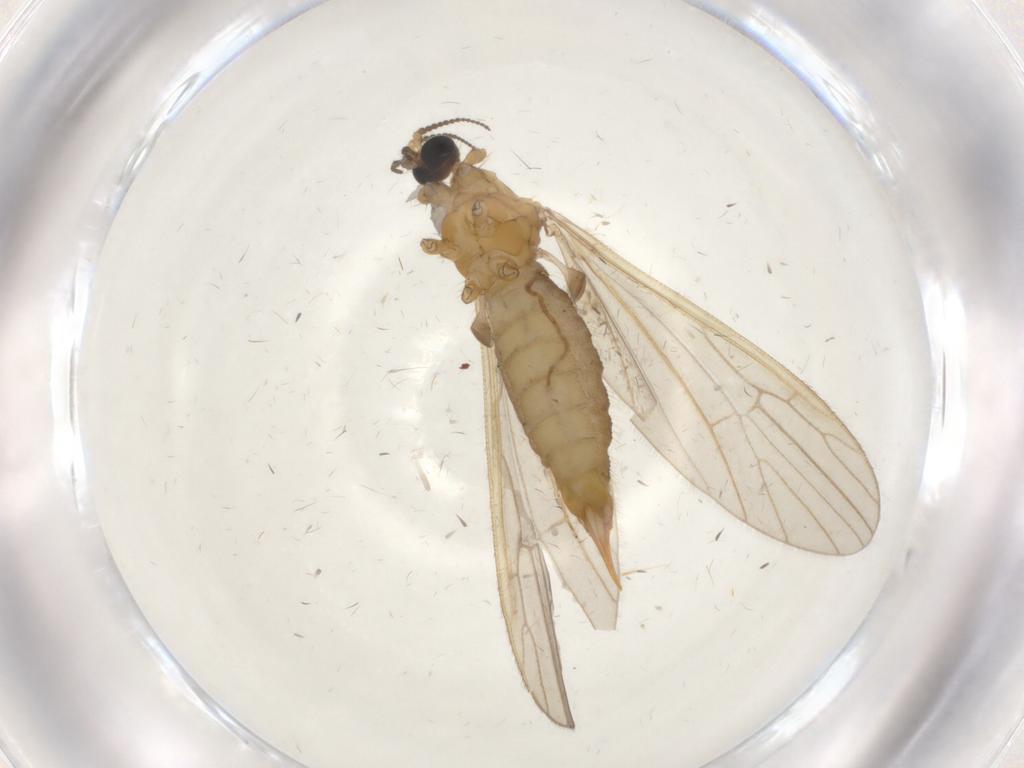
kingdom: Animalia
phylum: Arthropoda
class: Insecta
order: Diptera
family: Limoniidae
